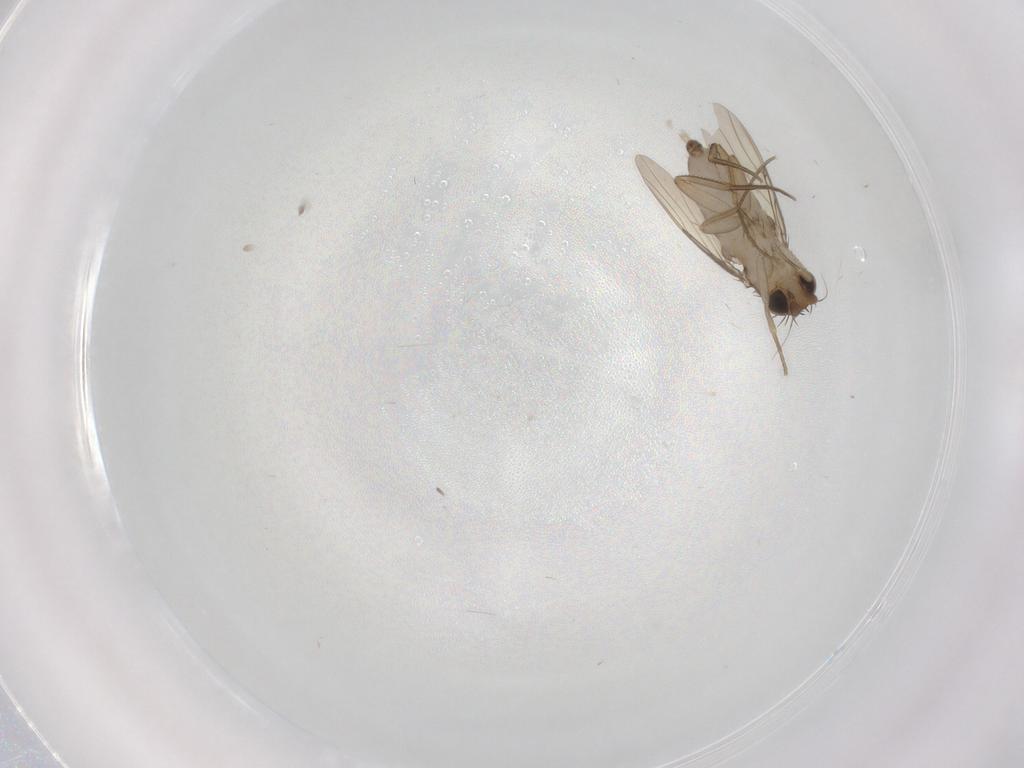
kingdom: Animalia
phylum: Arthropoda
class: Insecta
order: Diptera
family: Phoridae
